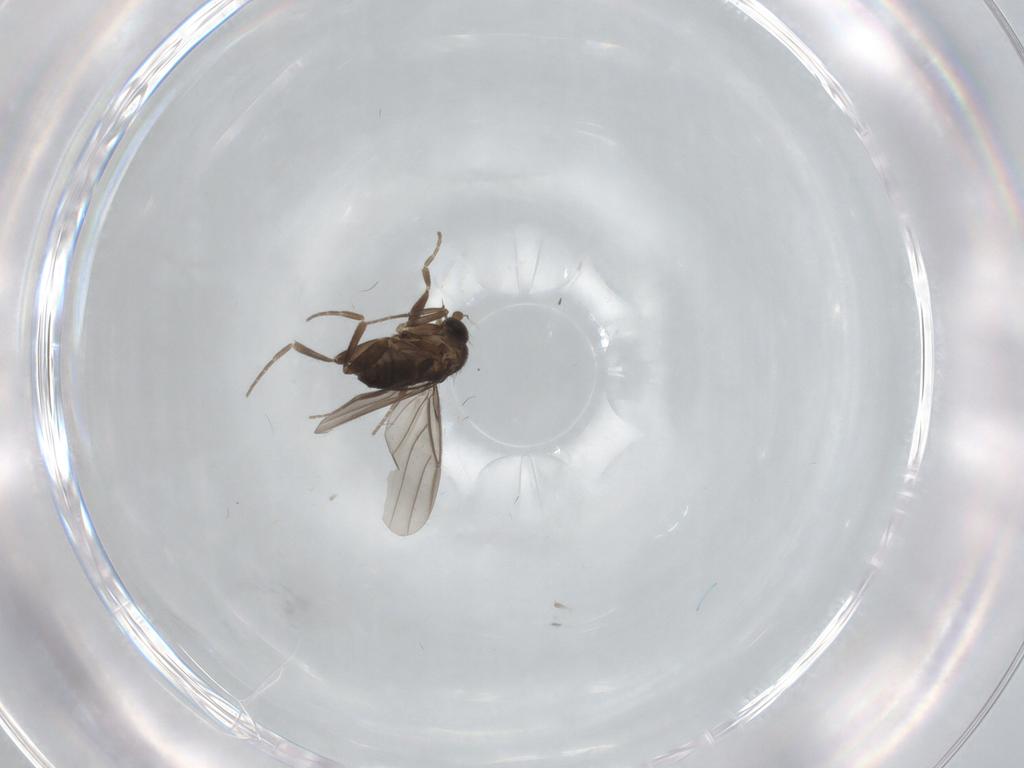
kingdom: Animalia
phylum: Arthropoda
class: Insecta
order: Diptera
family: Limoniidae
